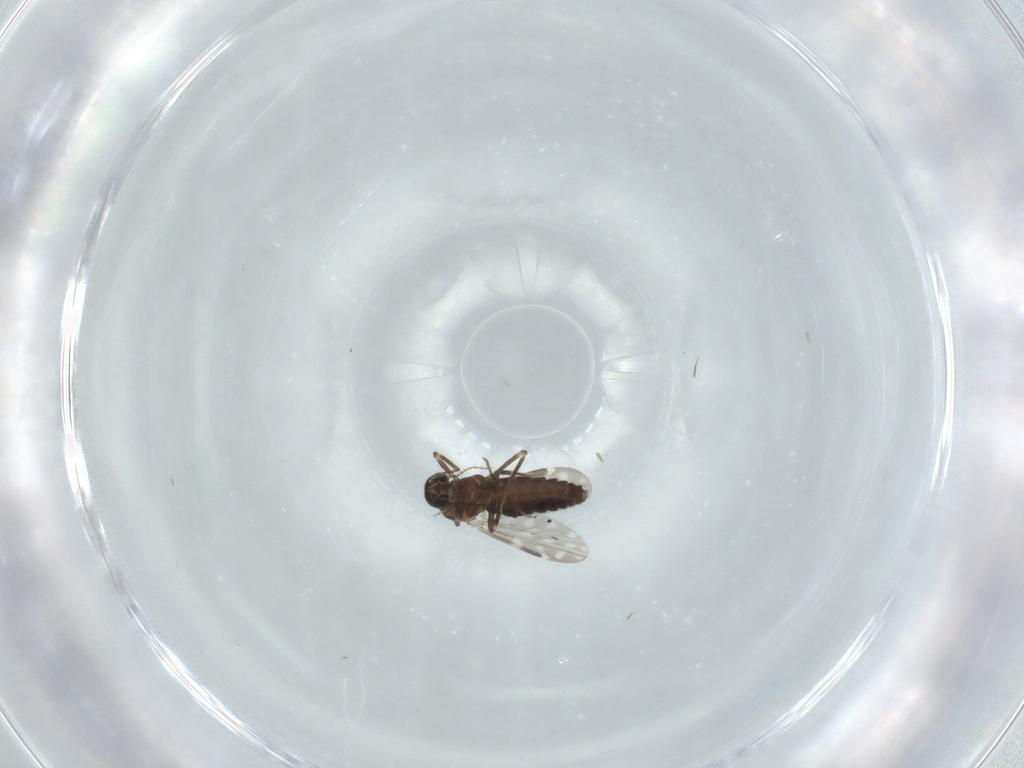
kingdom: Animalia
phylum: Arthropoda
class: Insecta
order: Diptera
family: Ceratopogonidae
